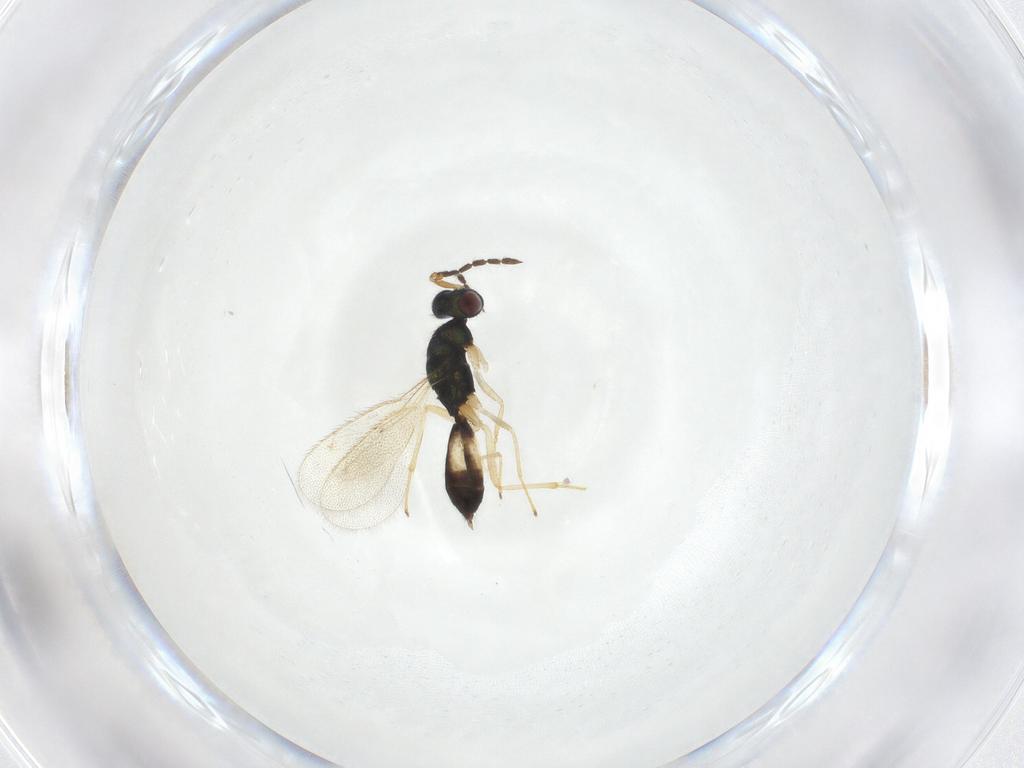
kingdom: Animalia
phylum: Arthropoda
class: Insecta
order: Hymenoptera
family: Eulophidae
